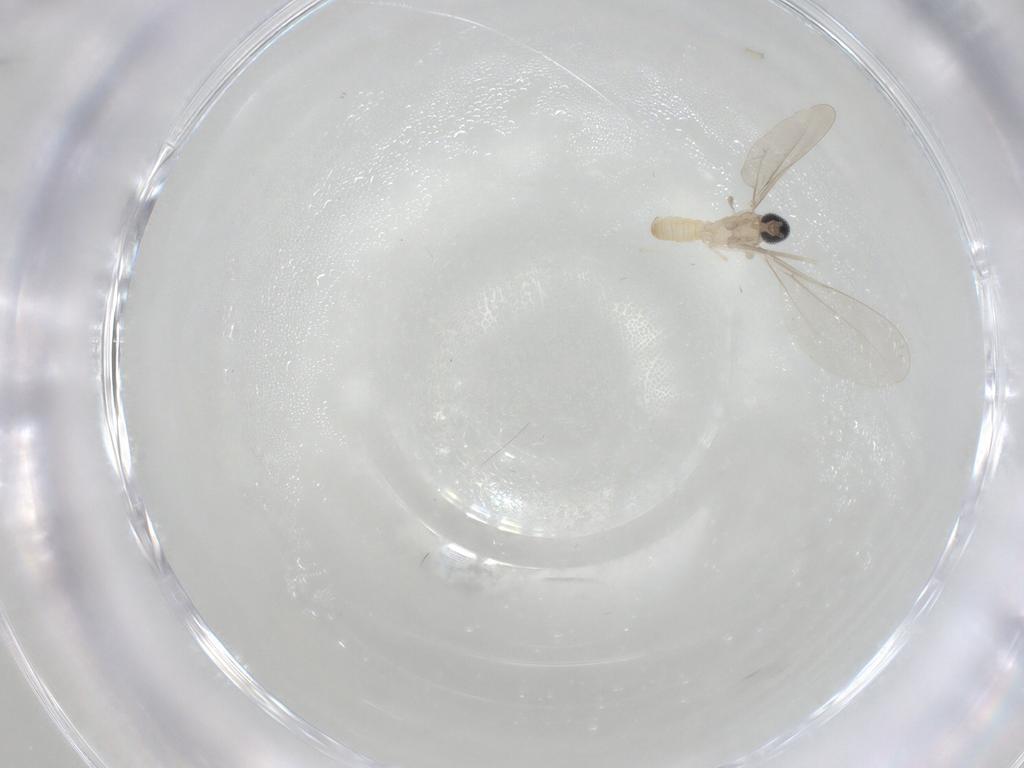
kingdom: Animalia
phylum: Arthropoda
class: Insecta
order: Diptera
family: Cecidomyiidae
